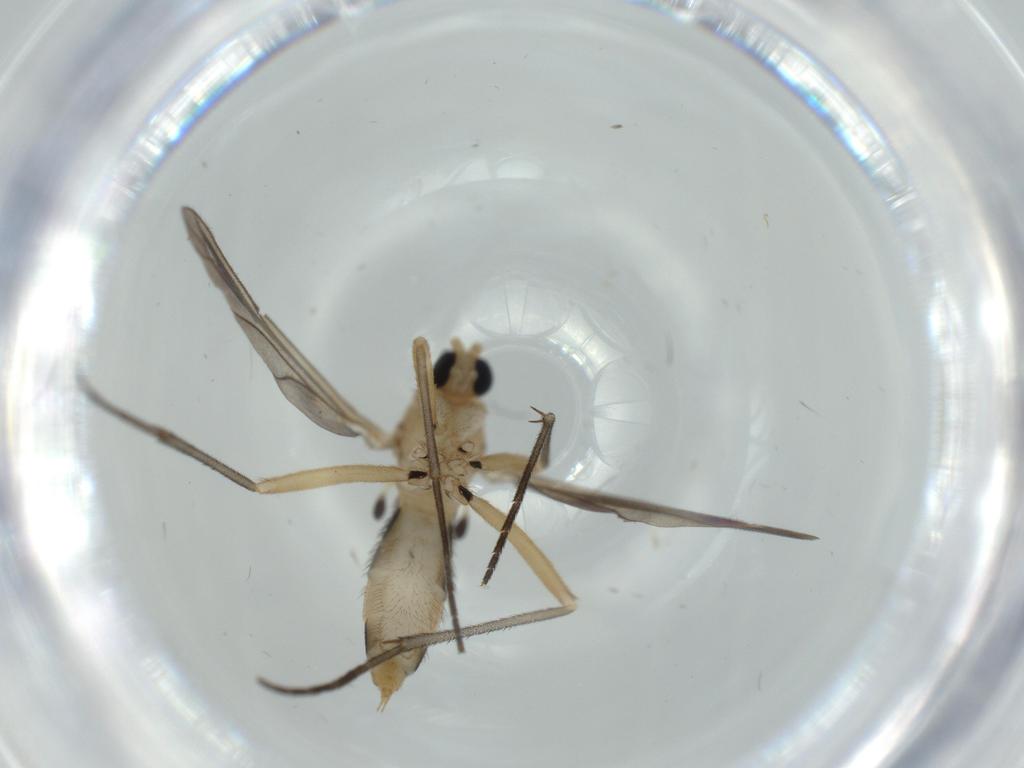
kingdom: Animalia
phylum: Arthropoda
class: Insecta
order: Diptera
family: Sciaridae
